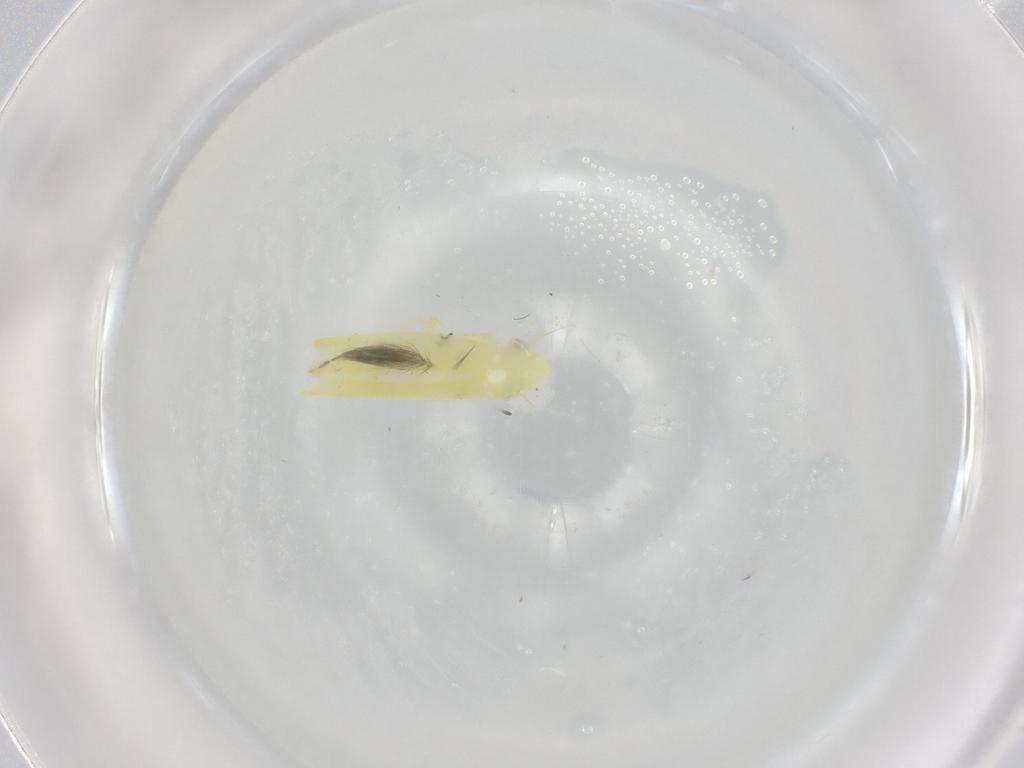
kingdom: Animalia
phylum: Arthropoda
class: Insecta
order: Hemiptera
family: Cicadellidae
